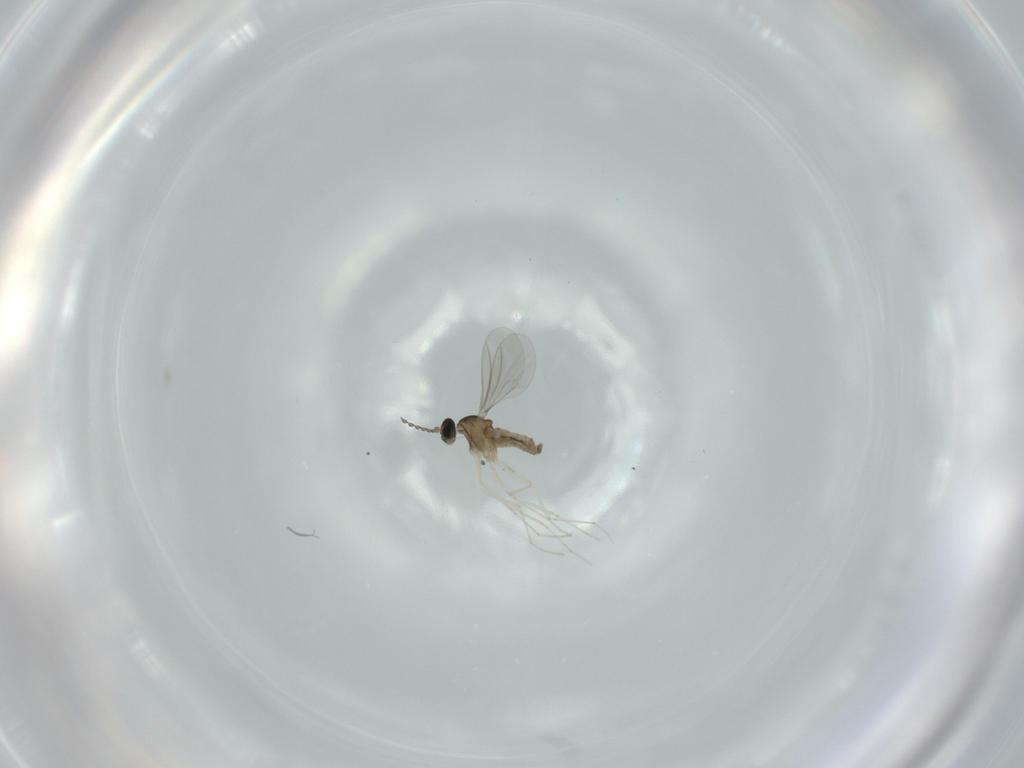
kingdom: Animalia
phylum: Arthropoda
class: Insecta
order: Diptera
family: Cecidomyiidae
